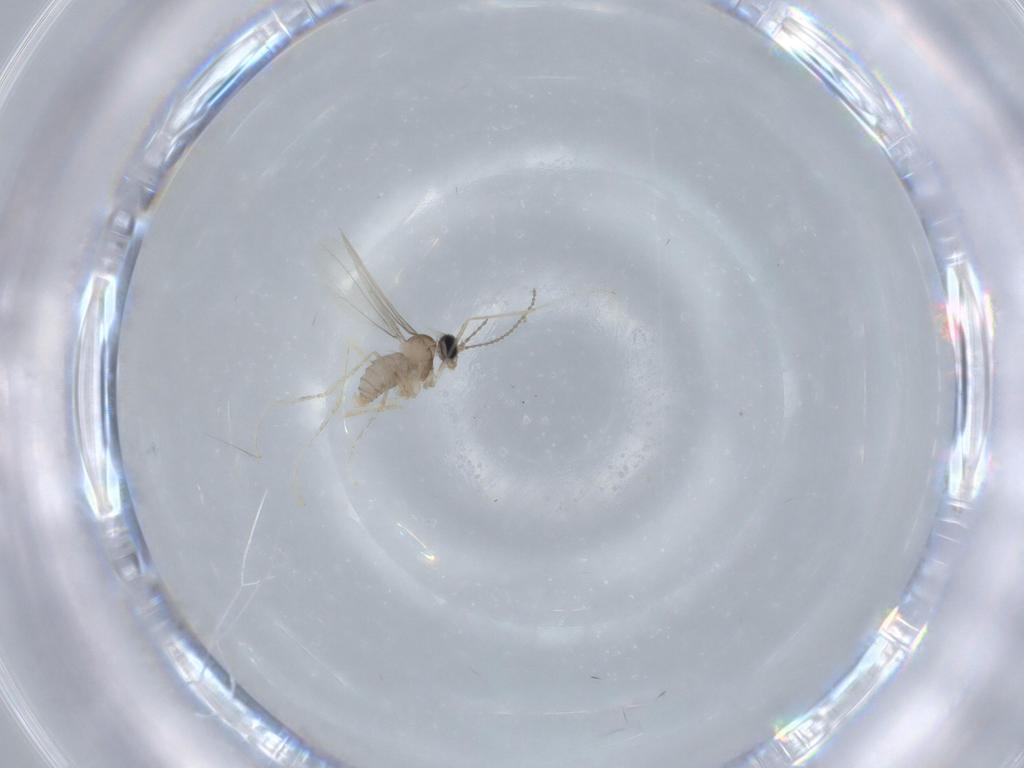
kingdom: Animalia
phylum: Arthropoda
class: Insecta
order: Diptera
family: Cecidomyiidae
